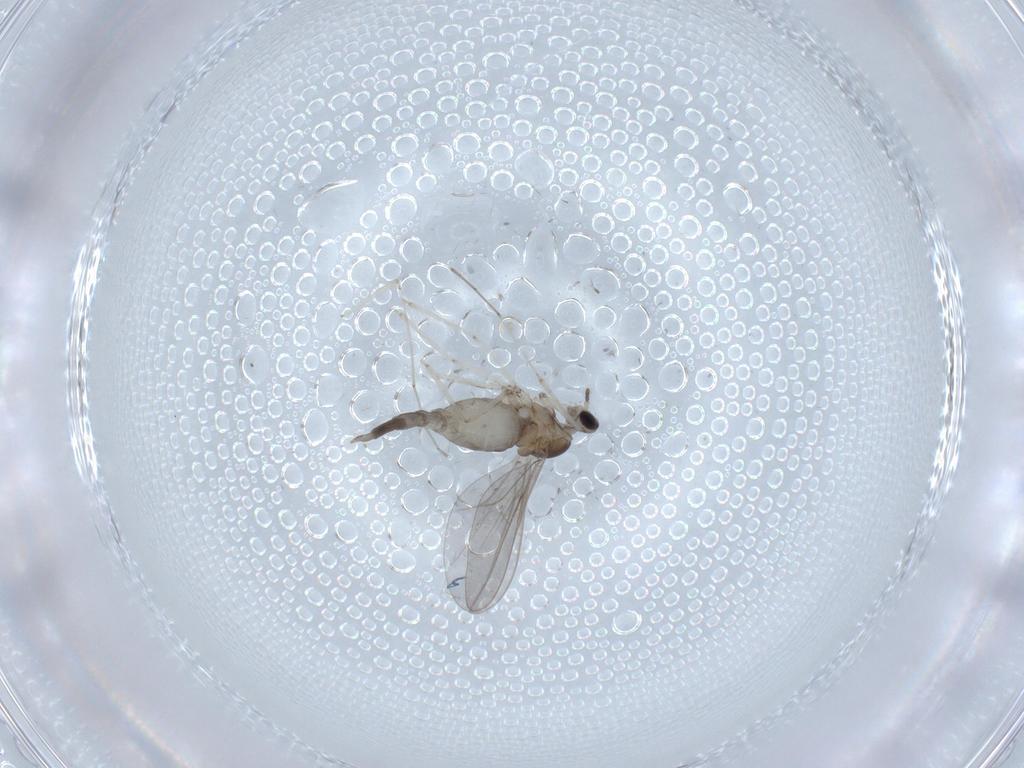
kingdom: Animalia
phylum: Arthropoda
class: Insecta
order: Diptera
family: Cecidomyiidae
